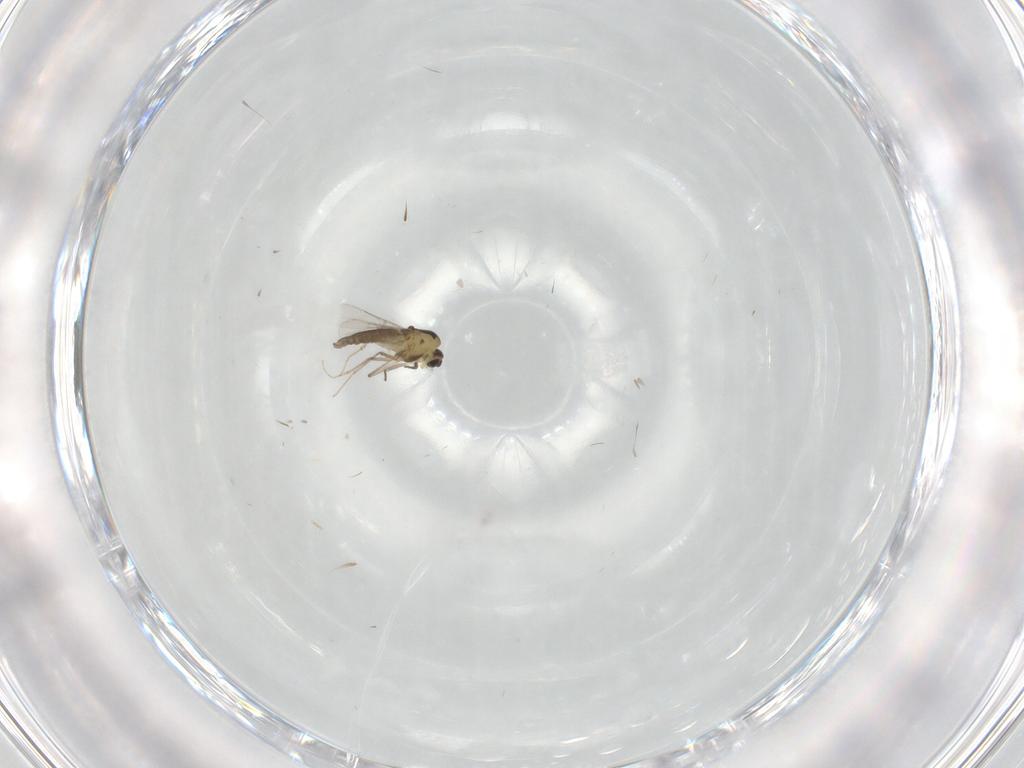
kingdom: Animalia
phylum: Arthropoda
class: Insecta
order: Diptera
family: Chironomidae
